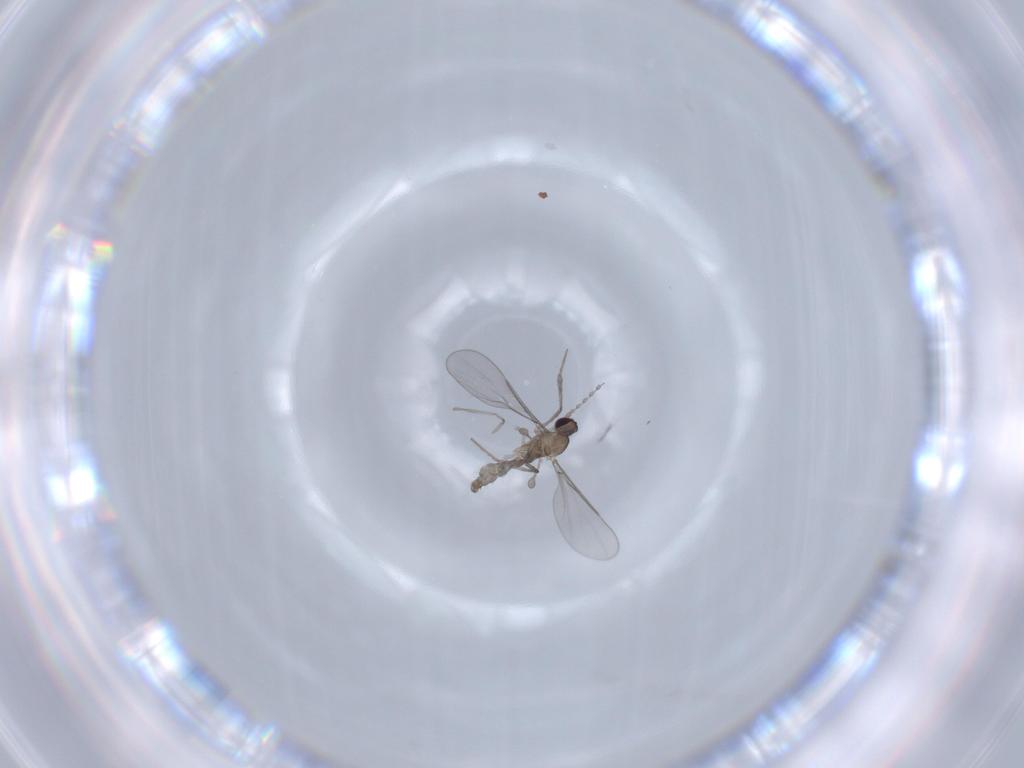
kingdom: Animalia
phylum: Arthropoda
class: Insecta
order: Diptera
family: Cecidomyiidae
